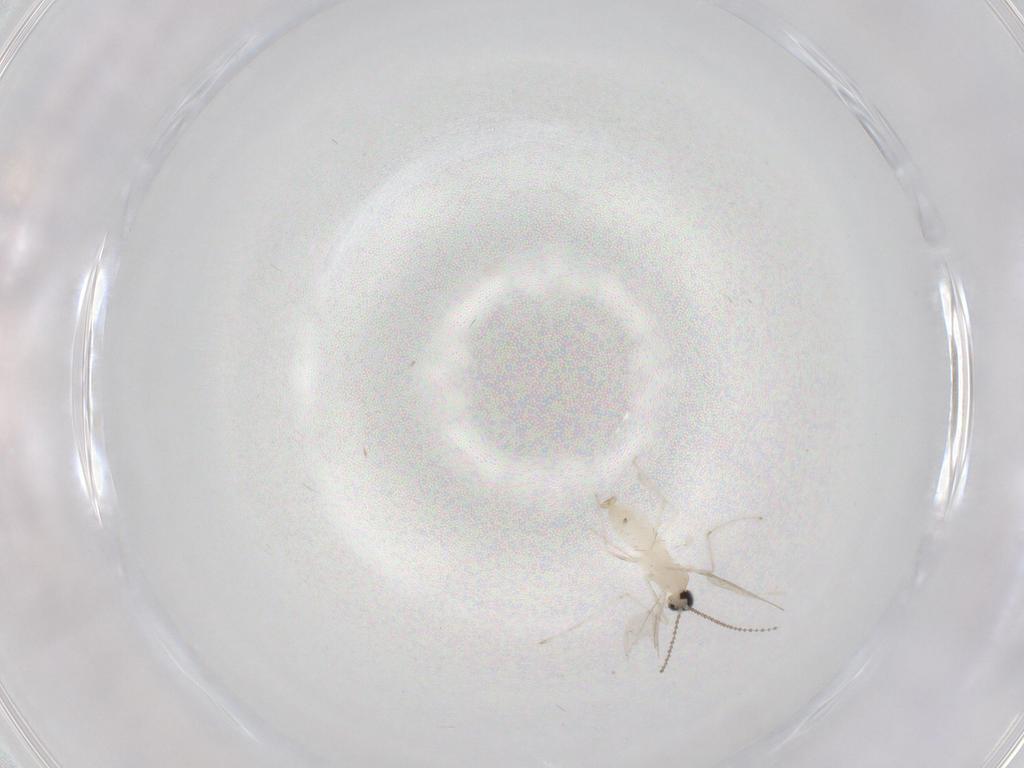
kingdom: Animalia
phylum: Arthropoda
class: Insecta
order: Diptera
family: Cecidomyiidae
